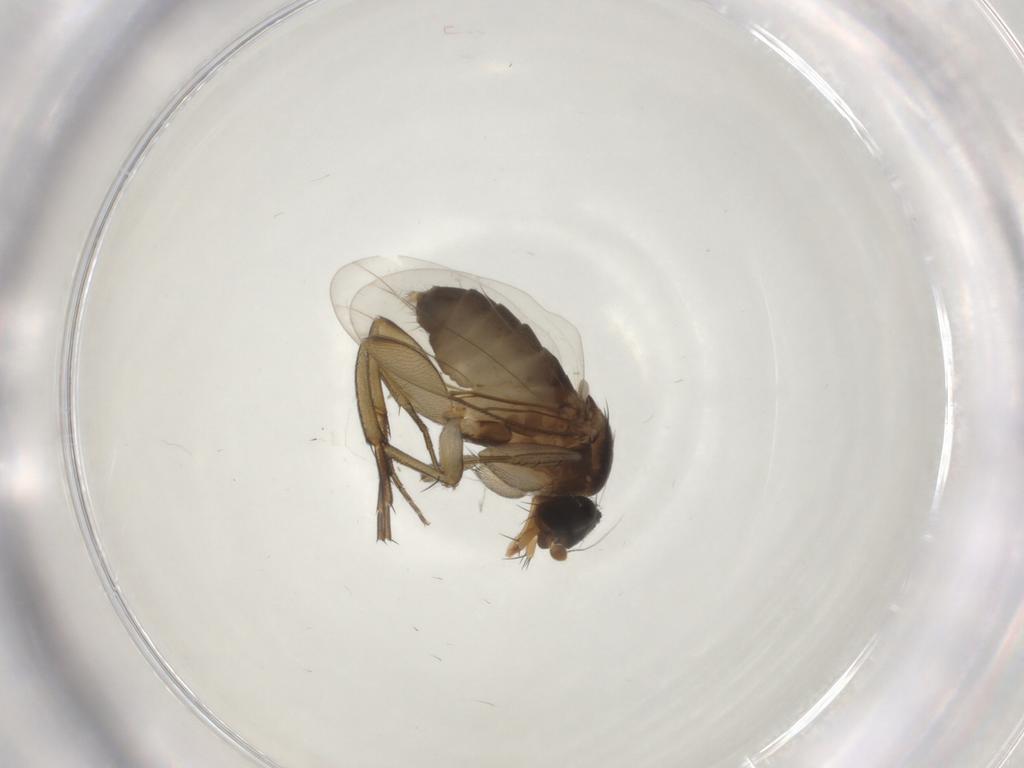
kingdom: Animalia
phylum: Arthropoda
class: Insecta
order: Diptera
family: Phoridae
